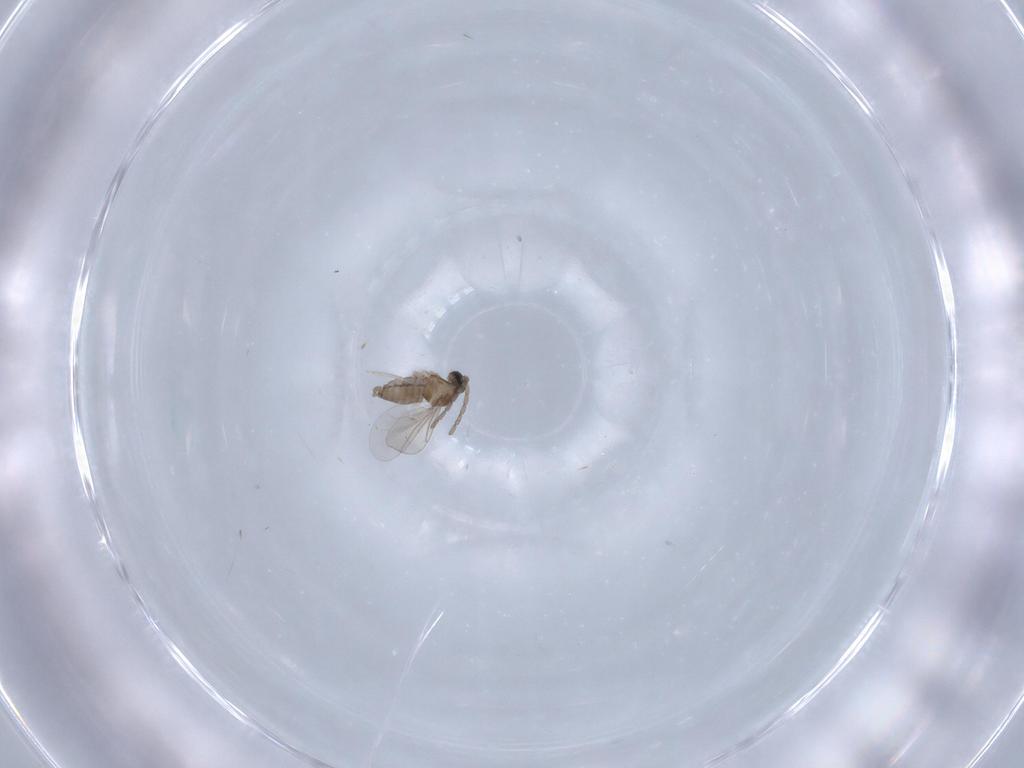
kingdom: Animalia
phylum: Arthropoda
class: Insecta
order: Diptera
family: Cecidomyiidae
